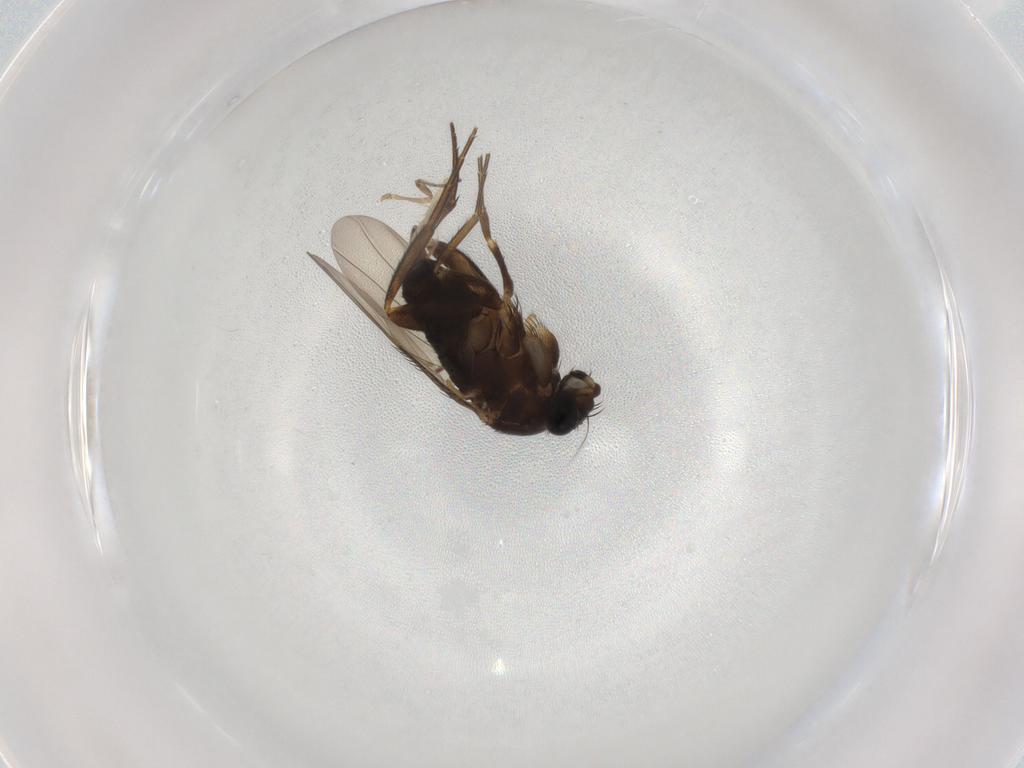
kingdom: Animalia
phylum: Arthropoda
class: Insecta
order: Diptera
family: Phoridae
